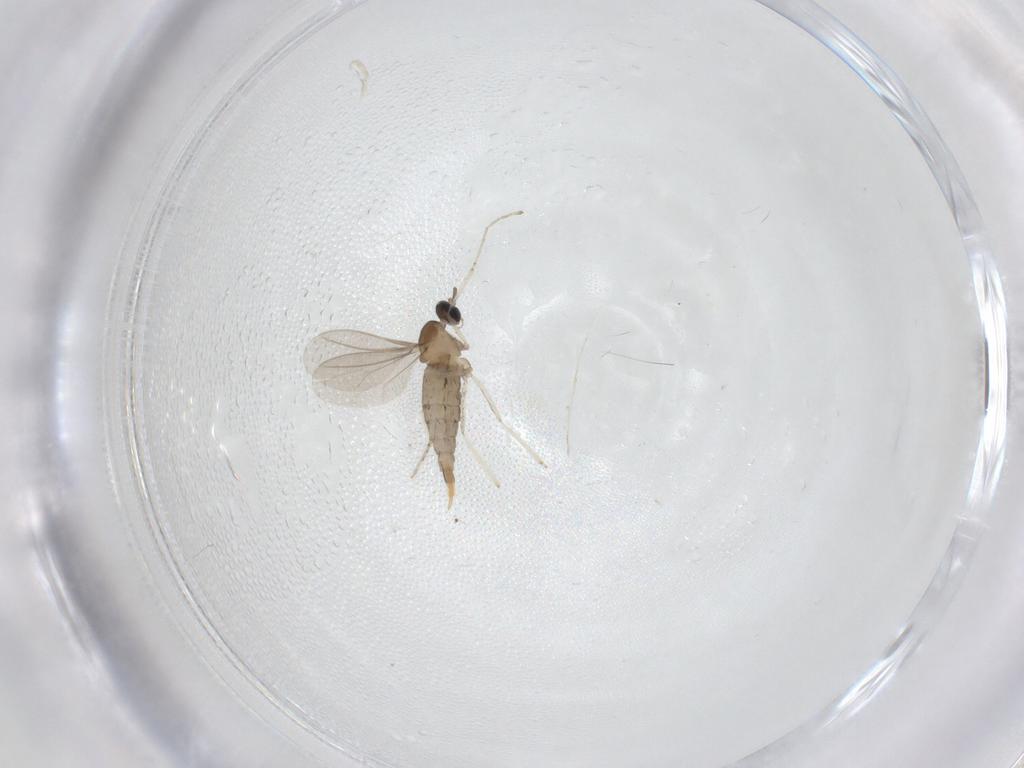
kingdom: Animalia
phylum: Arthropoda
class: Insecta
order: Diptera
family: Cecidomyiidae
